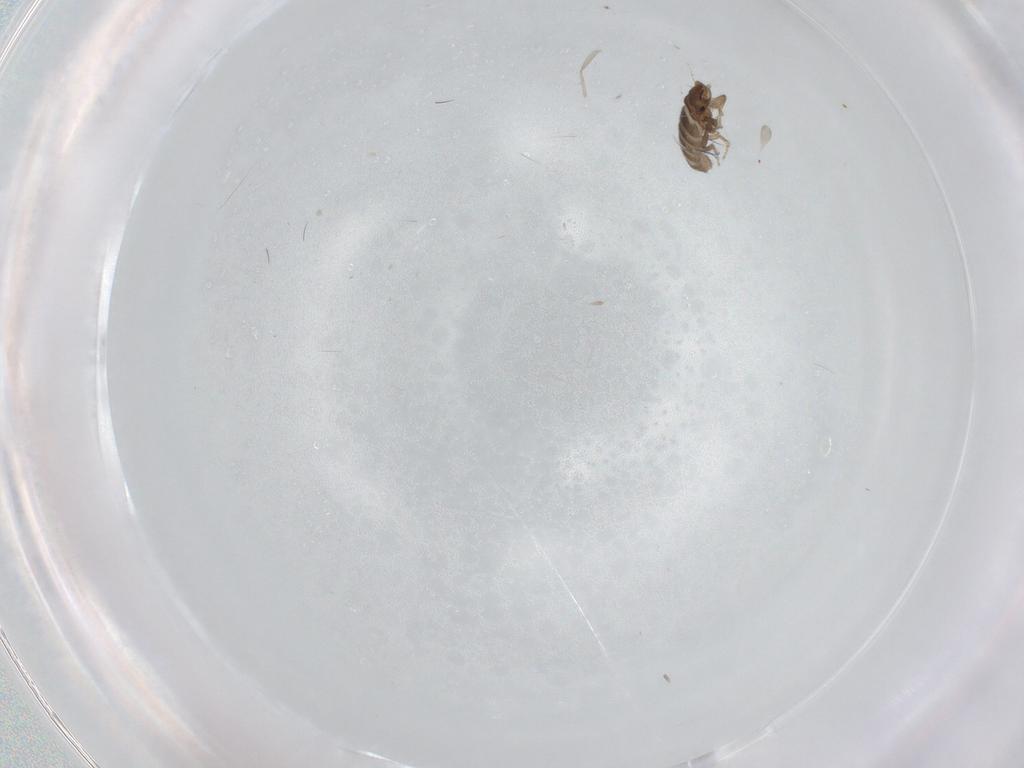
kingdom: Animalia
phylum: Arthropoda
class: Insecta
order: Diptera
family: Cecidomyiidae
